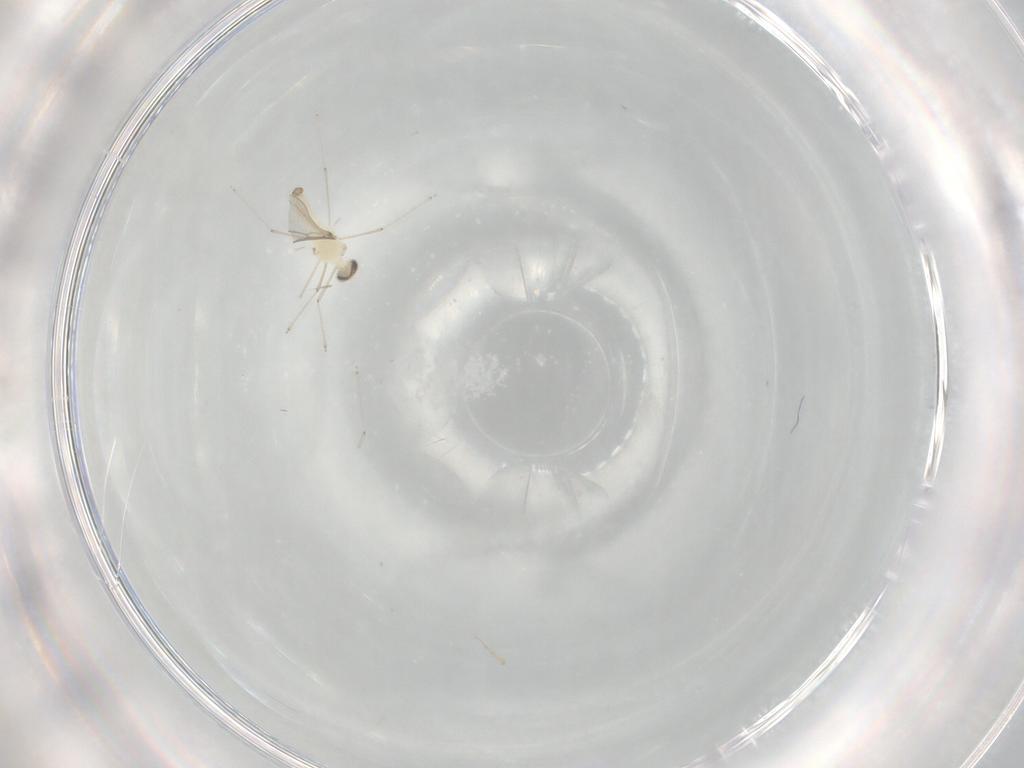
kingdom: Animalia
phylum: Arthropoda
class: Insecta
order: Diptera
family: Cecidomyiidae
